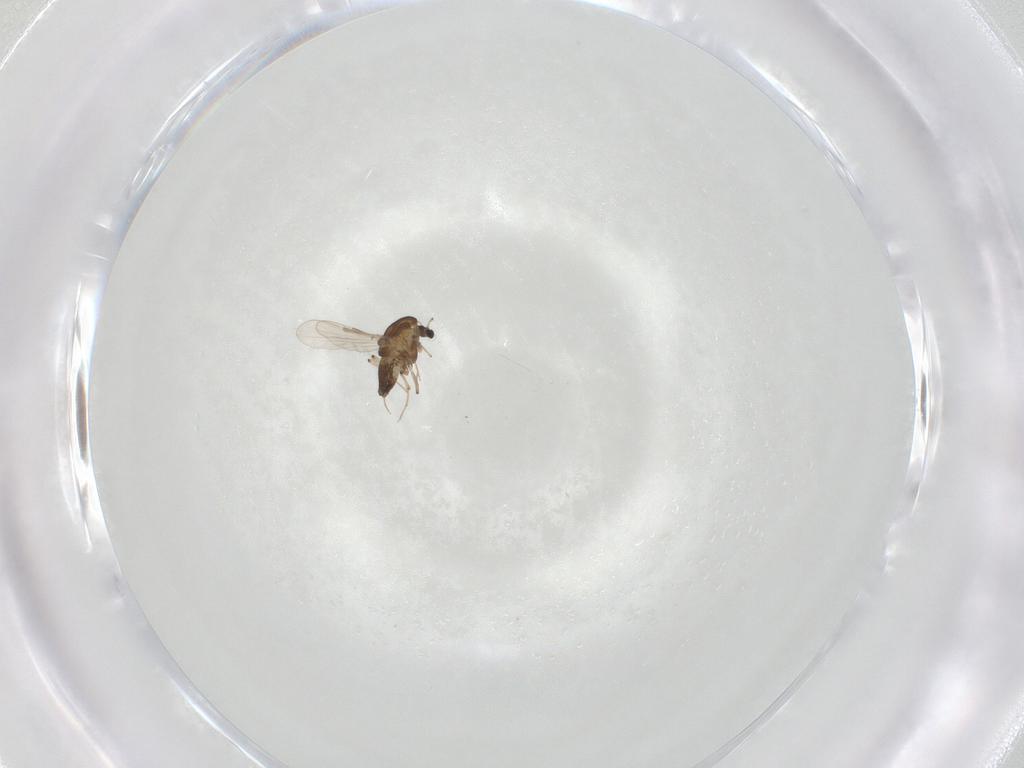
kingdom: Animalia
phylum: Arthropoda
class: Insecta
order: Diptera
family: Chironomidae
